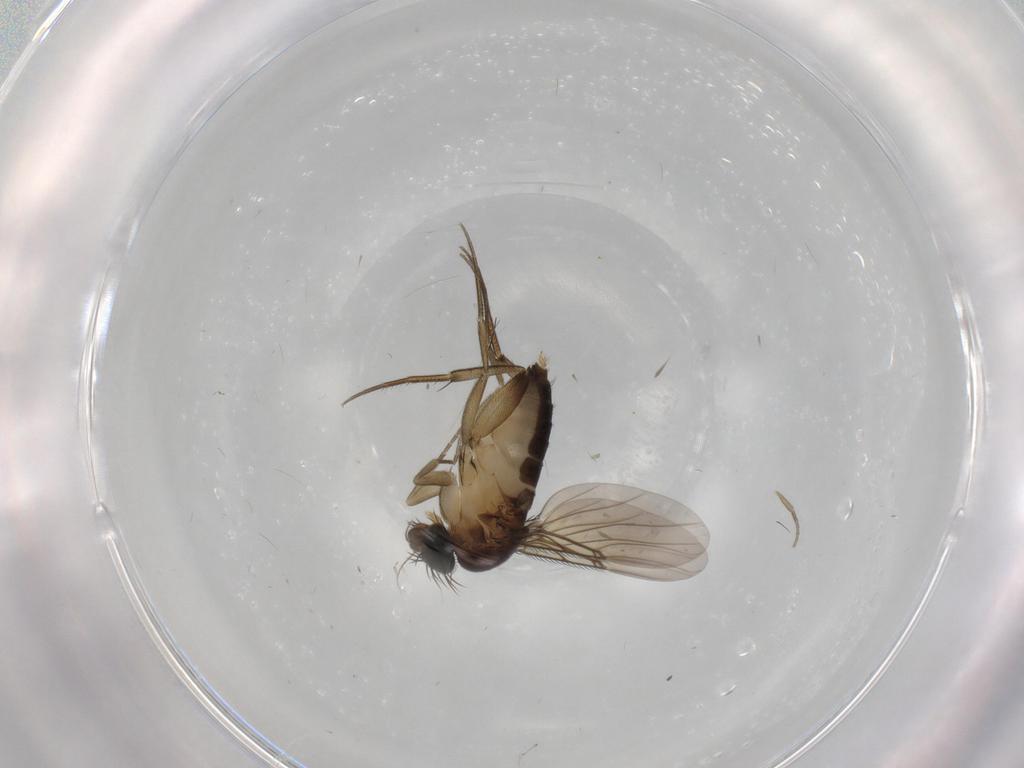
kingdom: Animalia
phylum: Arthropoda
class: Insecta
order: Diptera
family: Phoridae
